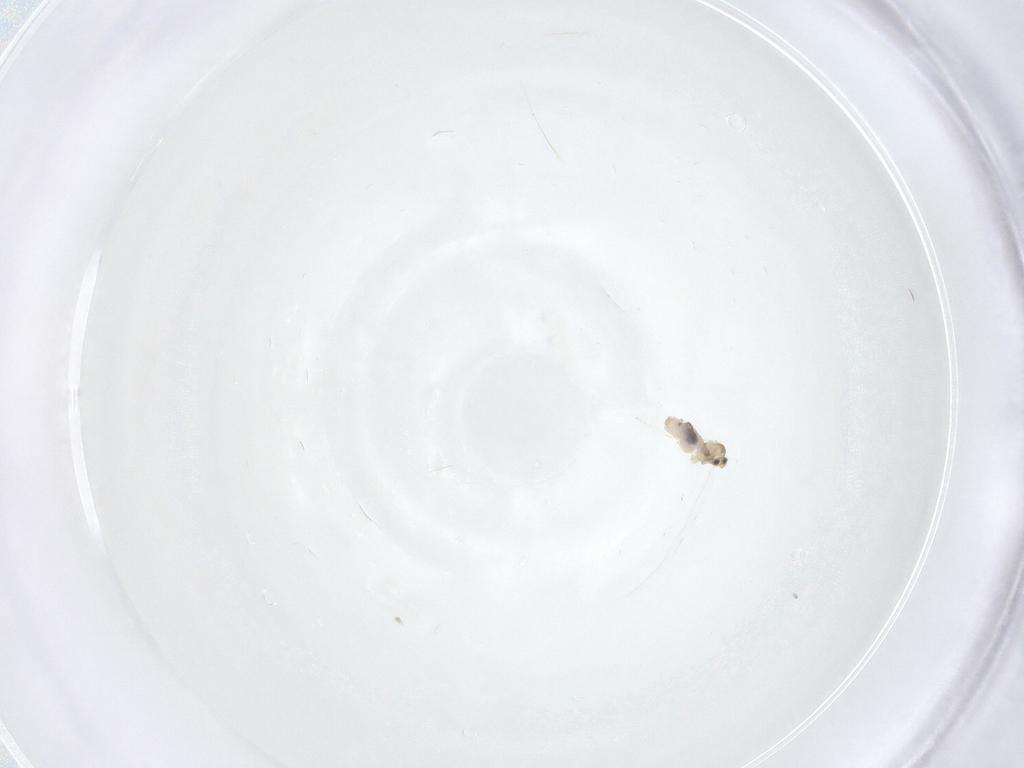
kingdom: Animalia
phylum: Arthropoda
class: Insecta
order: Diptera
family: Cecidomyiidae
